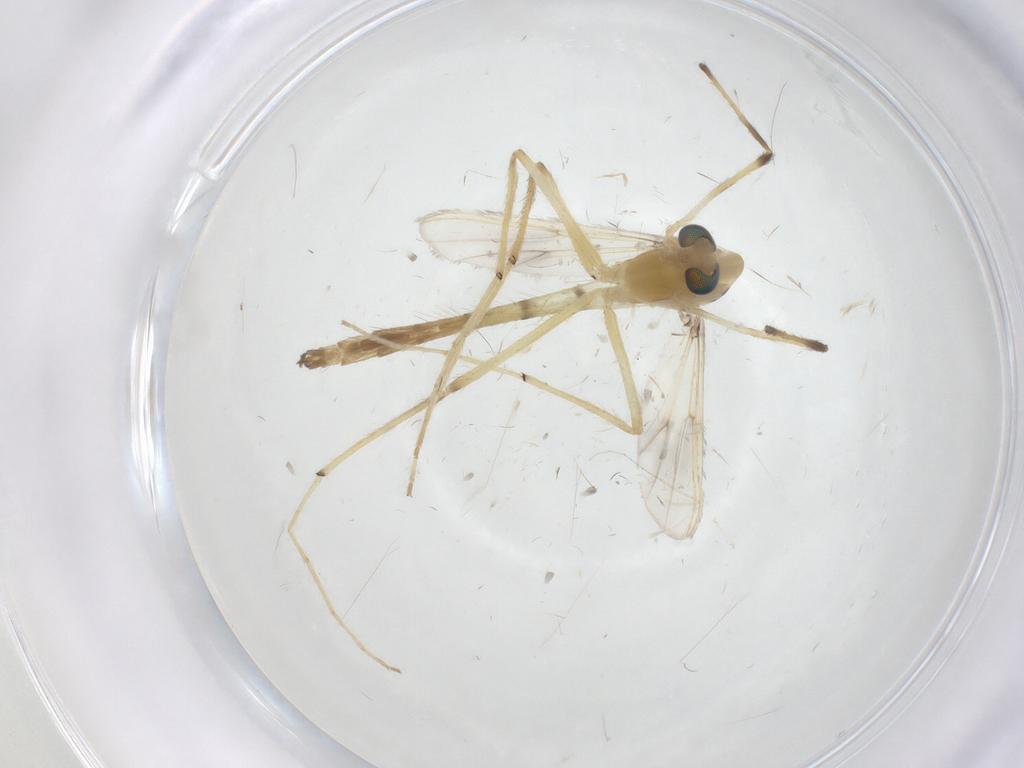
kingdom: Animalia
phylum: Arthropoda
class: Insecta
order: Diptera
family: Chironomidae
